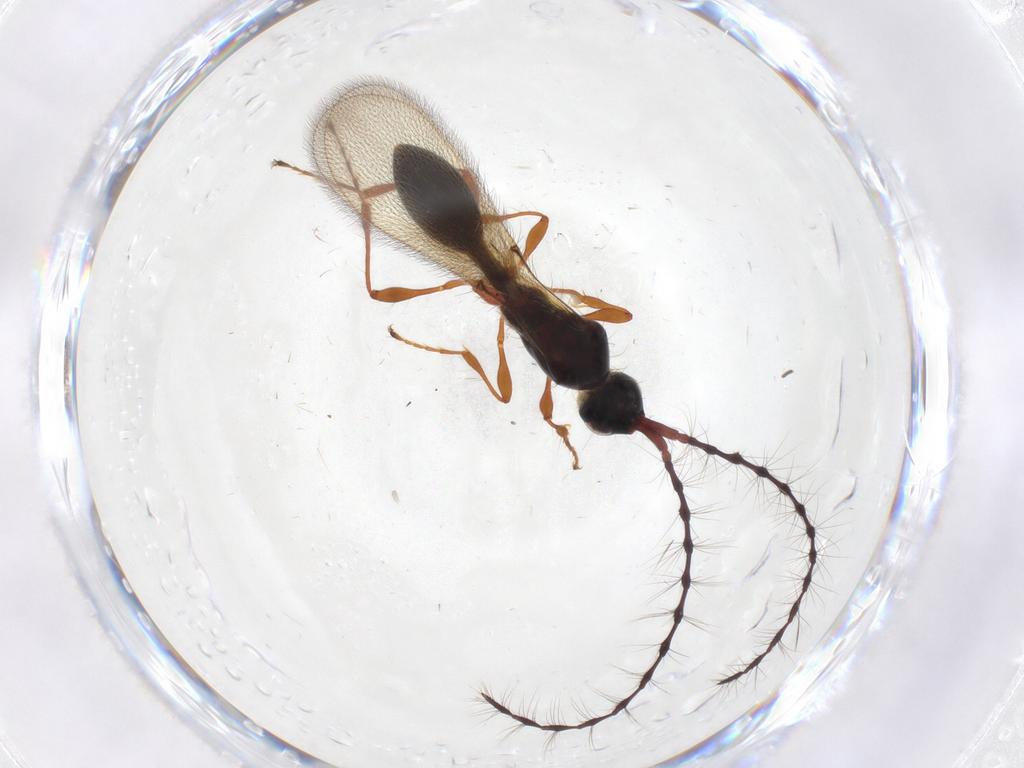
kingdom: Animalia
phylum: Arthropoda
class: Insecta
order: Hymenoptera
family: Diapriidae
